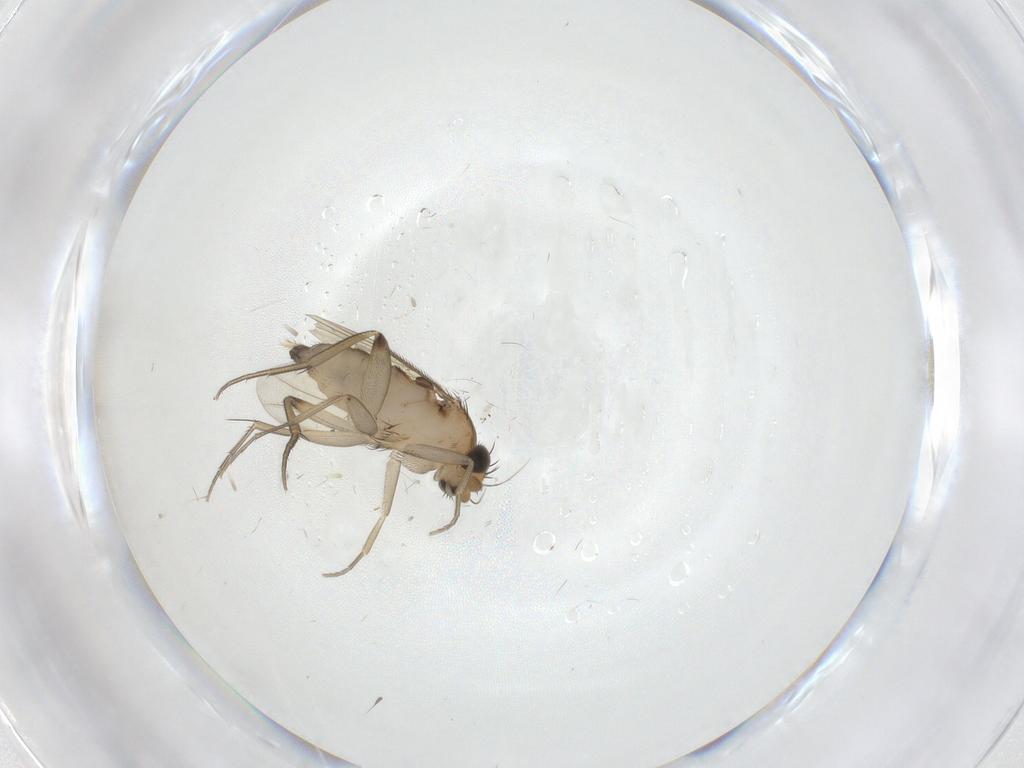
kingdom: Animalia
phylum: Arthropoda
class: Insecta
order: Diptera
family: Phoridae
